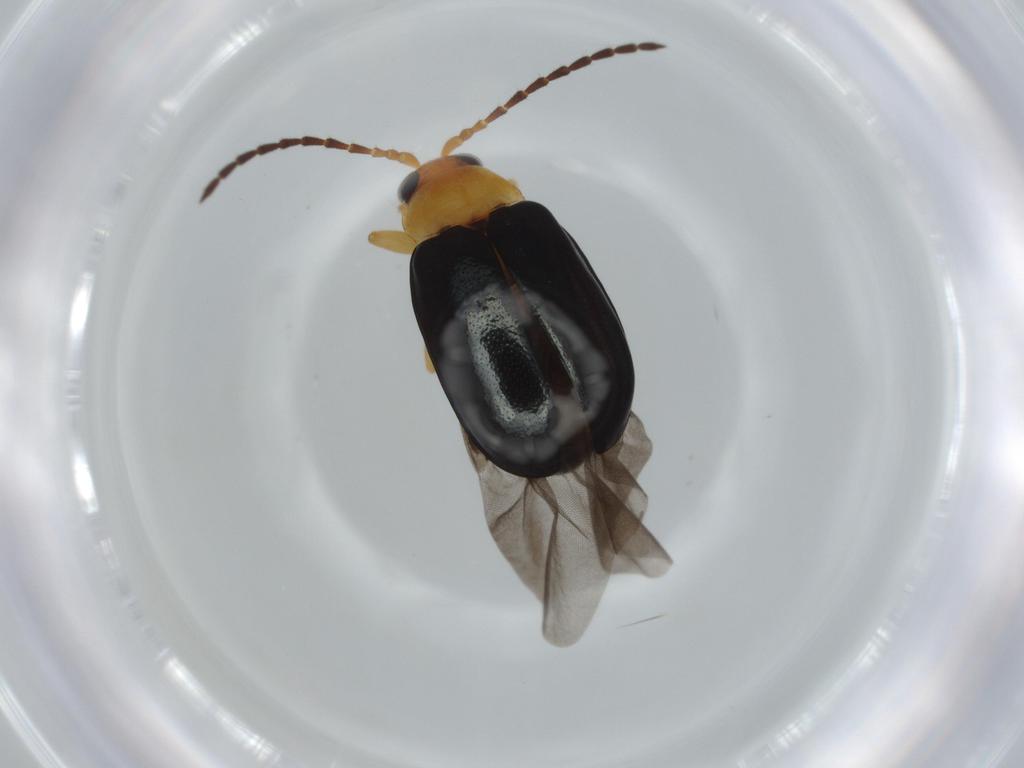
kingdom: Animalia
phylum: Arthropoda
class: Insecta
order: Coleoptera
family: Chrysomelidae
